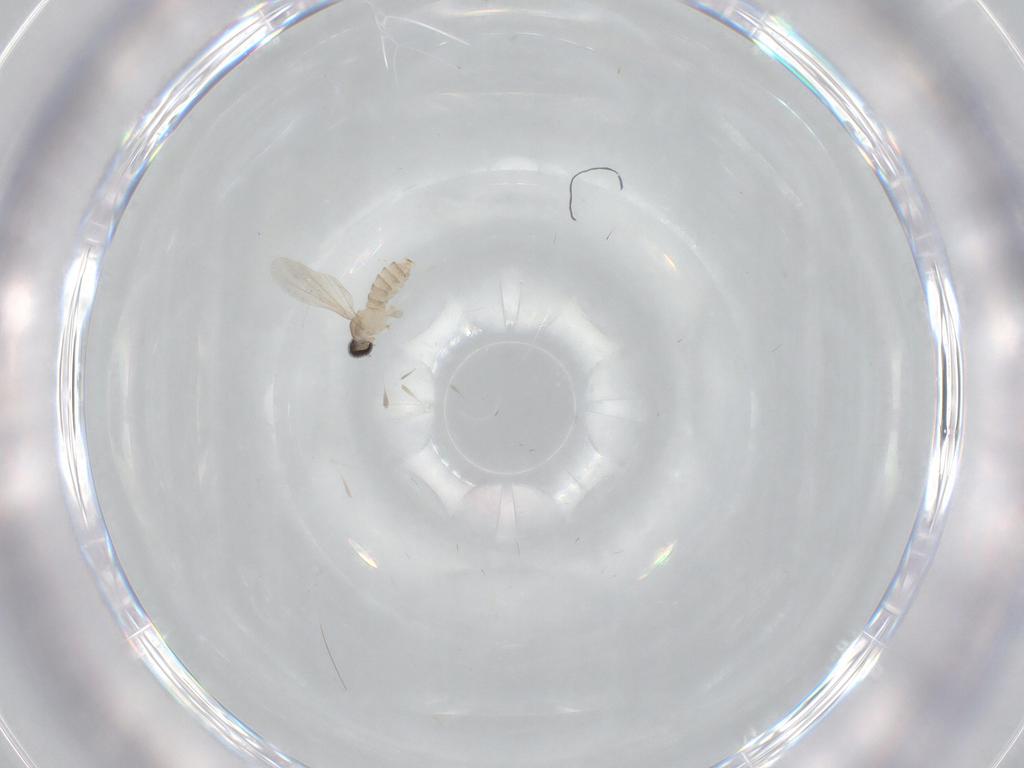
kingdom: Animalia
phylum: Arthropoda
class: Insecta
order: Diptera
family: Cecidomyiidae
